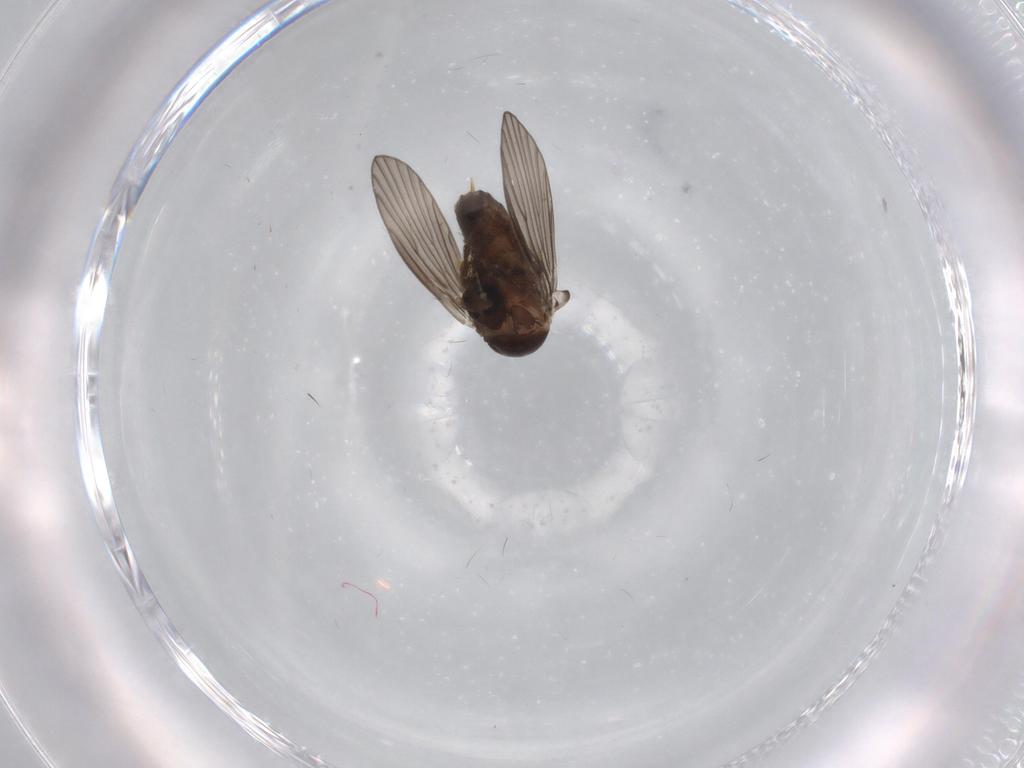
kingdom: Animalia
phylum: Arthropoda
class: Insecta
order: Diptera
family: Psychodidae
